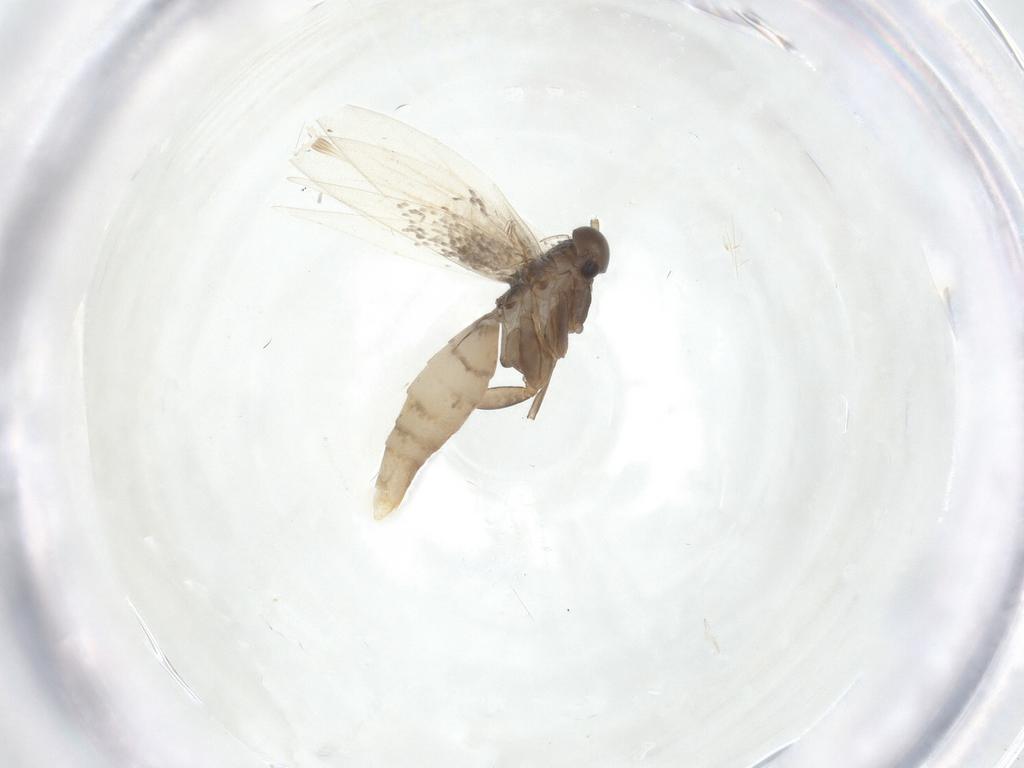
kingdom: Animalia
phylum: Arthropoda
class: Insecta
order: Lepidoptera
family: Elachistidae
